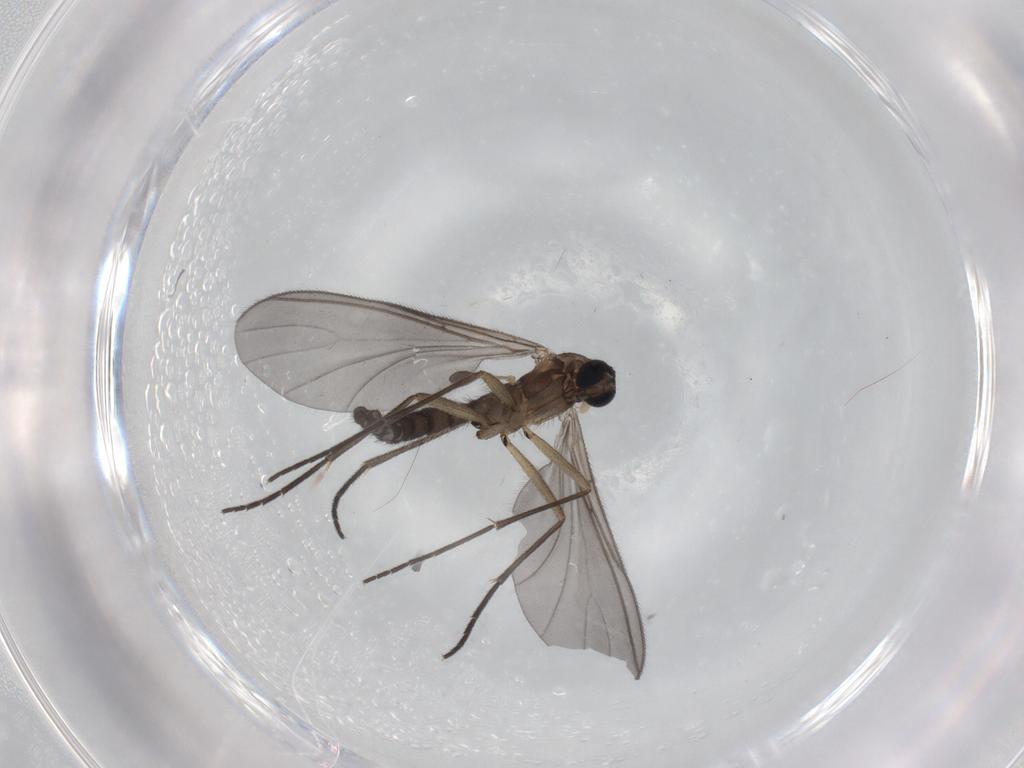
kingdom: Animalia
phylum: Arthropoda
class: Insecta
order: Diptera
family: Sciaridae
